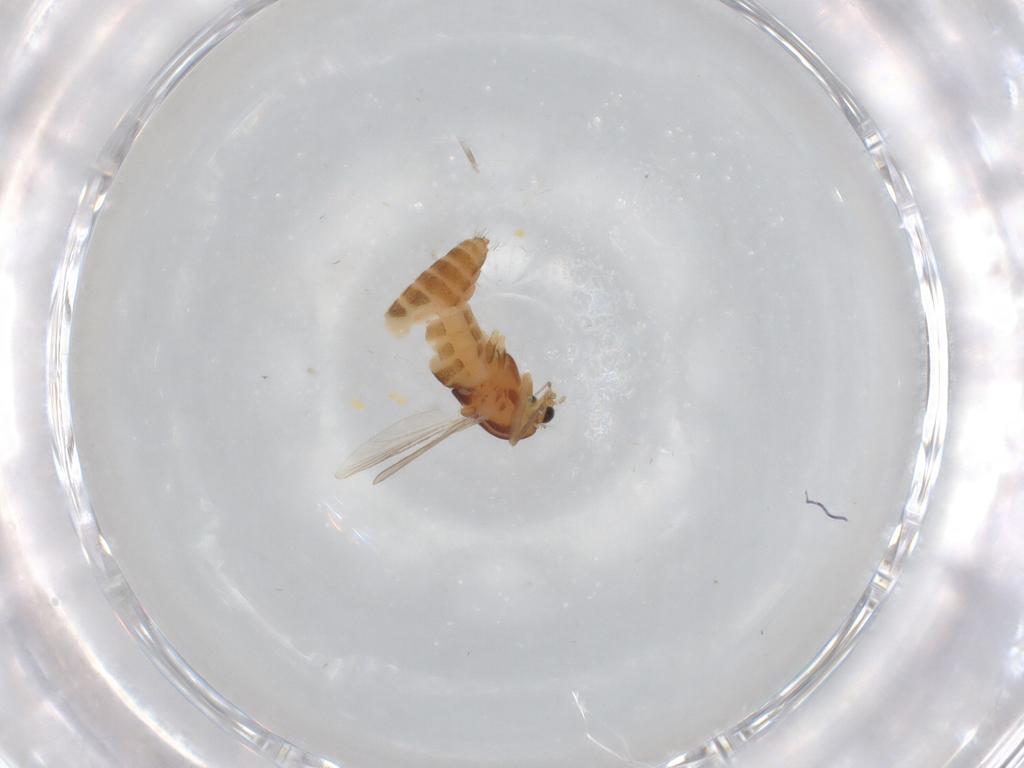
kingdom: Animalia
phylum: Arthropoda
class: Insecta
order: Diptera
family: Chironomidae
